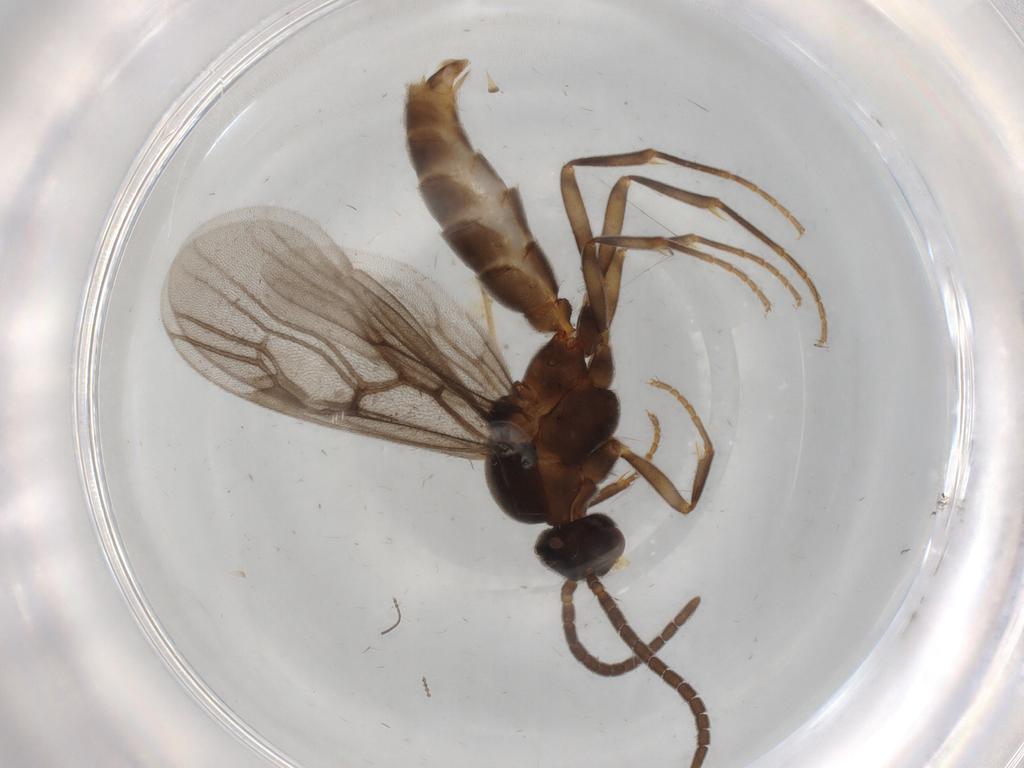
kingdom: Animalia
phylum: Arthropoda
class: Insecta
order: Hymenoptera
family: Formicidae
